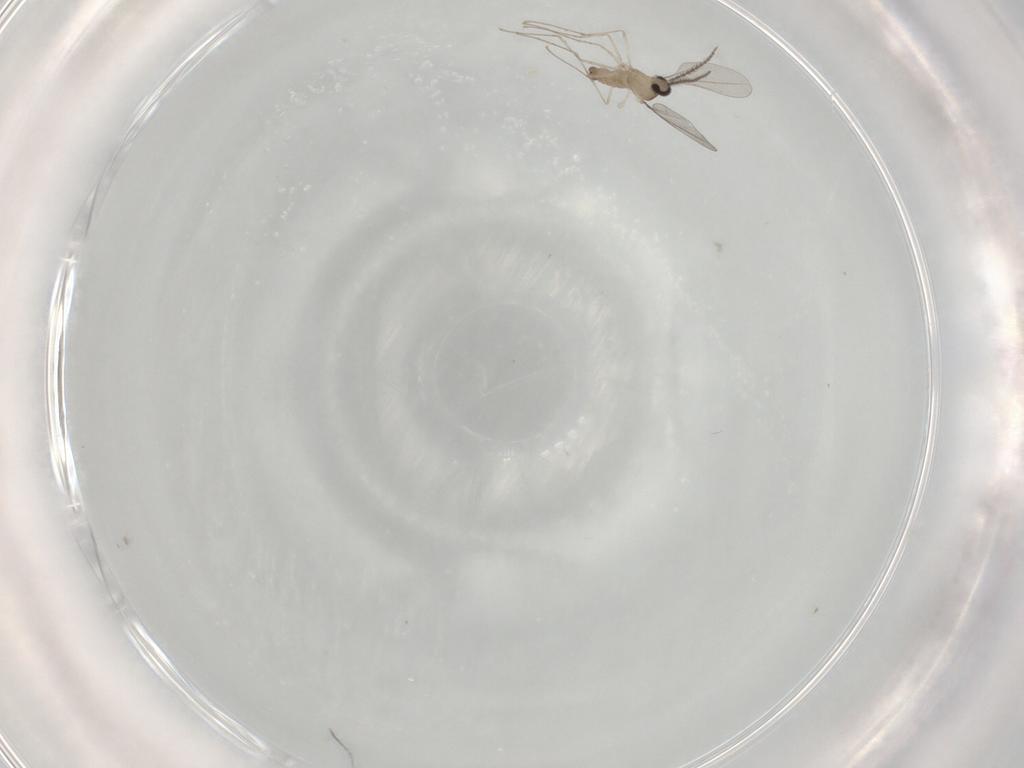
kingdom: Animalia
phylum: Arthropoda
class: Insecta
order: Diptera
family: Cecidomyiidae
